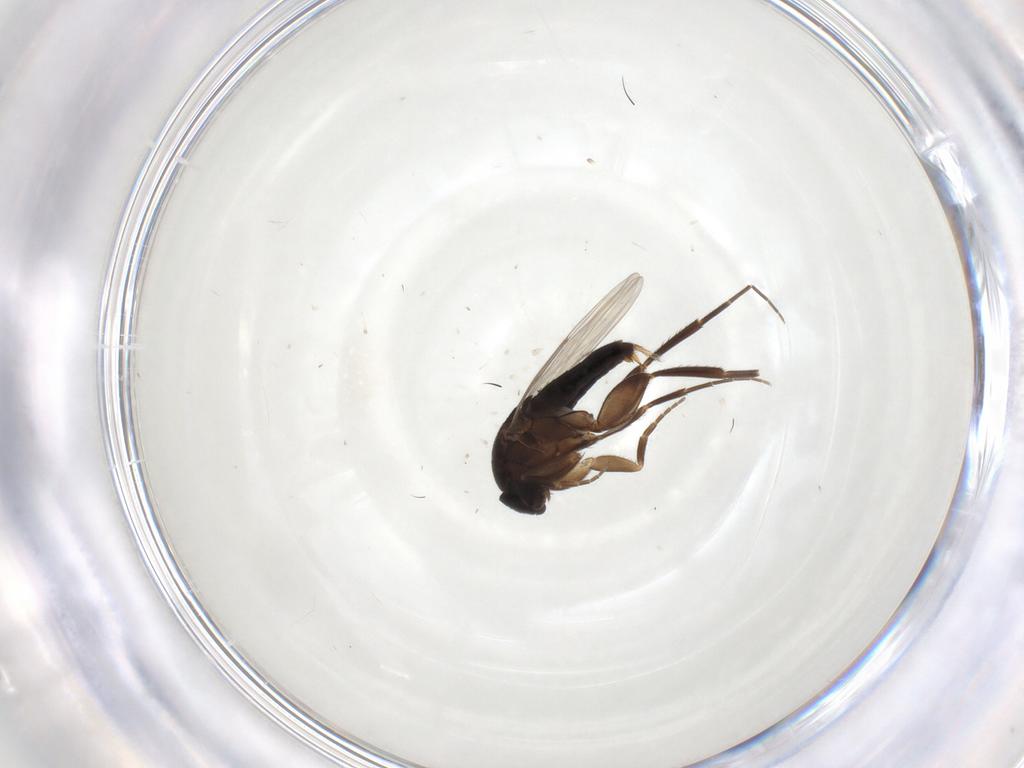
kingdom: Animalia
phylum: Arthropoda
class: Insecta
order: Diptera
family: Phoridae
